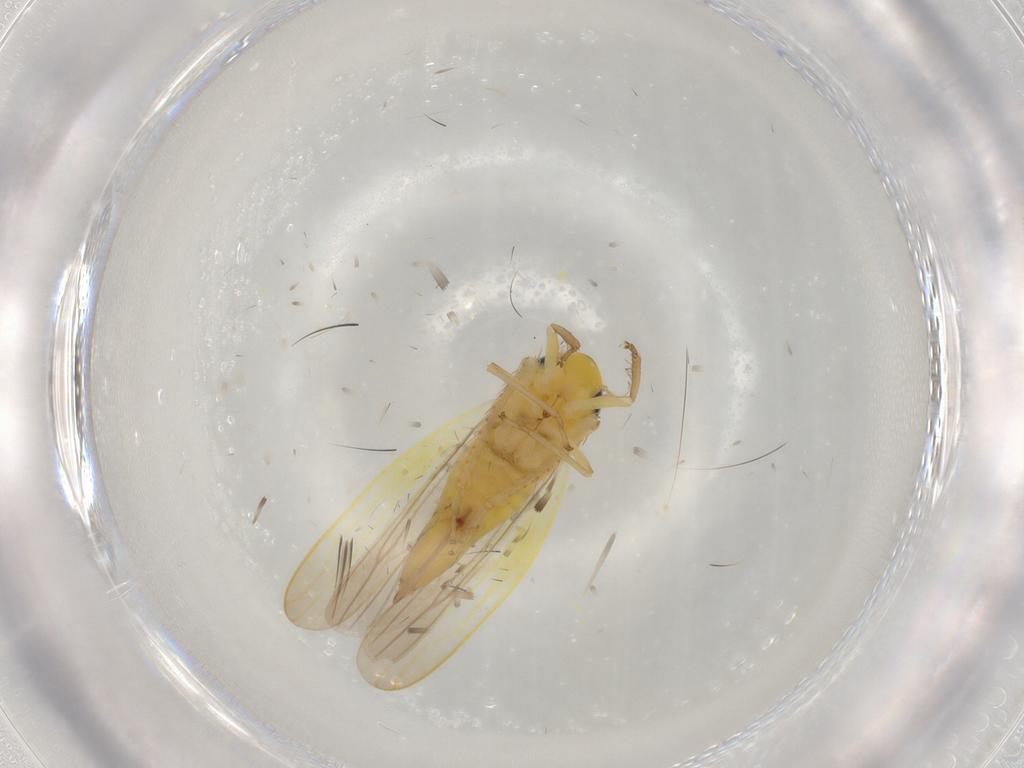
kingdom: Animalia
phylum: Arthropoda
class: Insecta
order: Hemiptera
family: Cicadellidae
